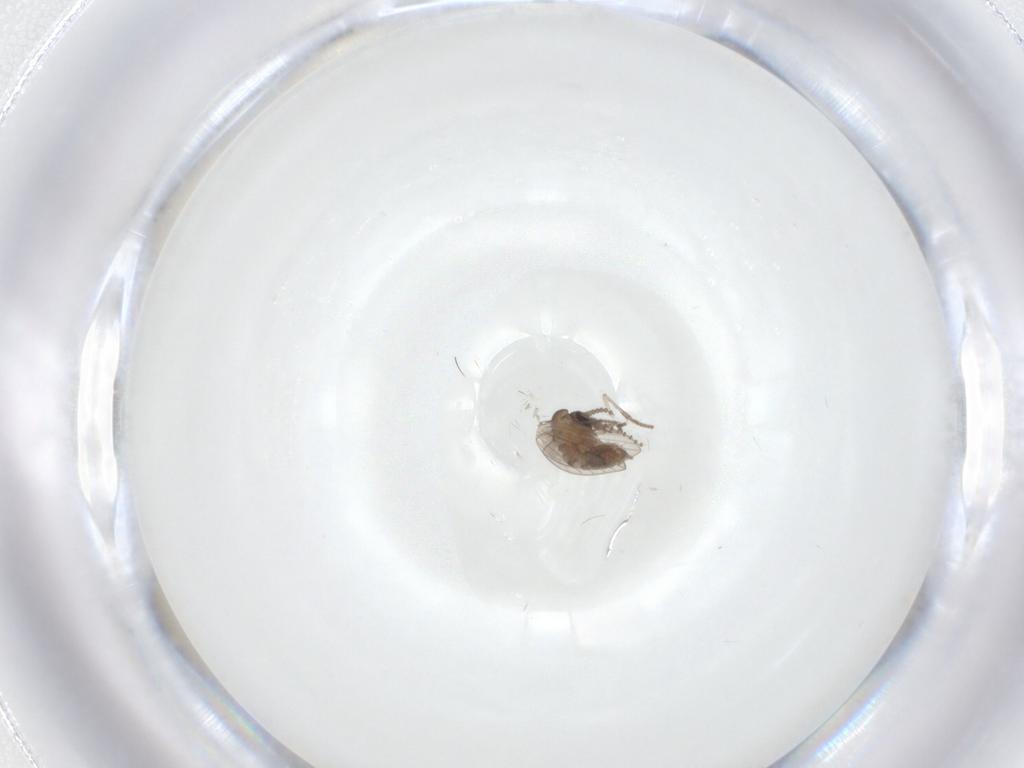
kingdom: Animalia
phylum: Arthropoda
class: Insecta
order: Diptera
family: Psychodidae
